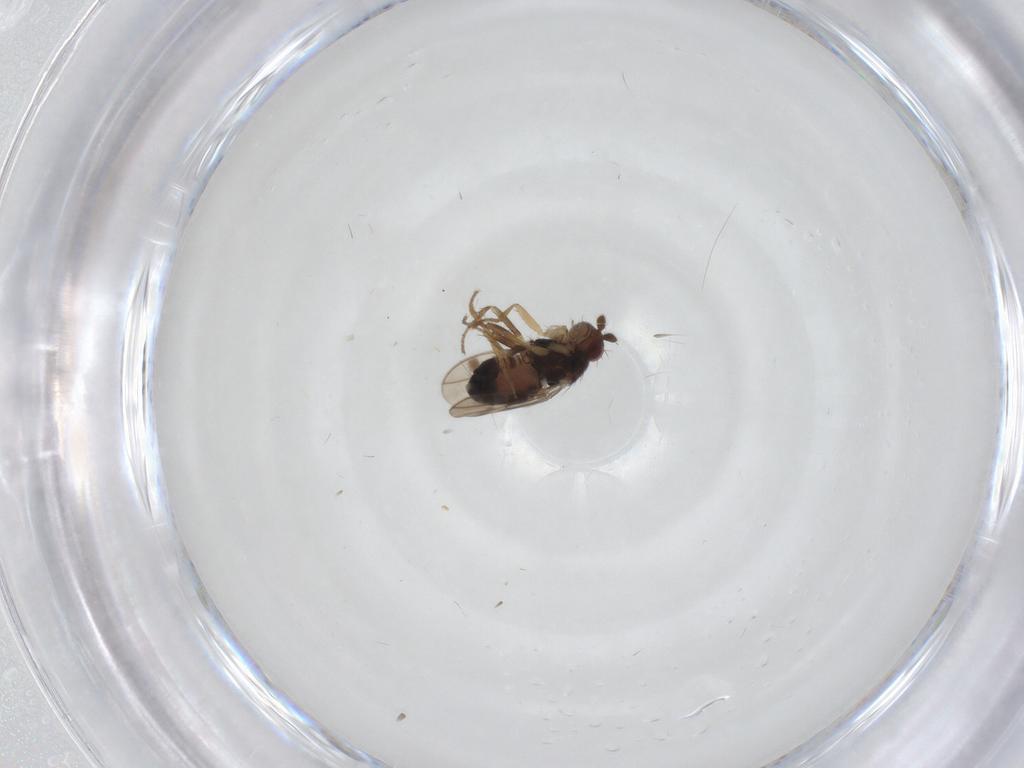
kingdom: Animalia
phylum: Arthropoda
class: Insecta
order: Diptera
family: Sphaeroceridae
